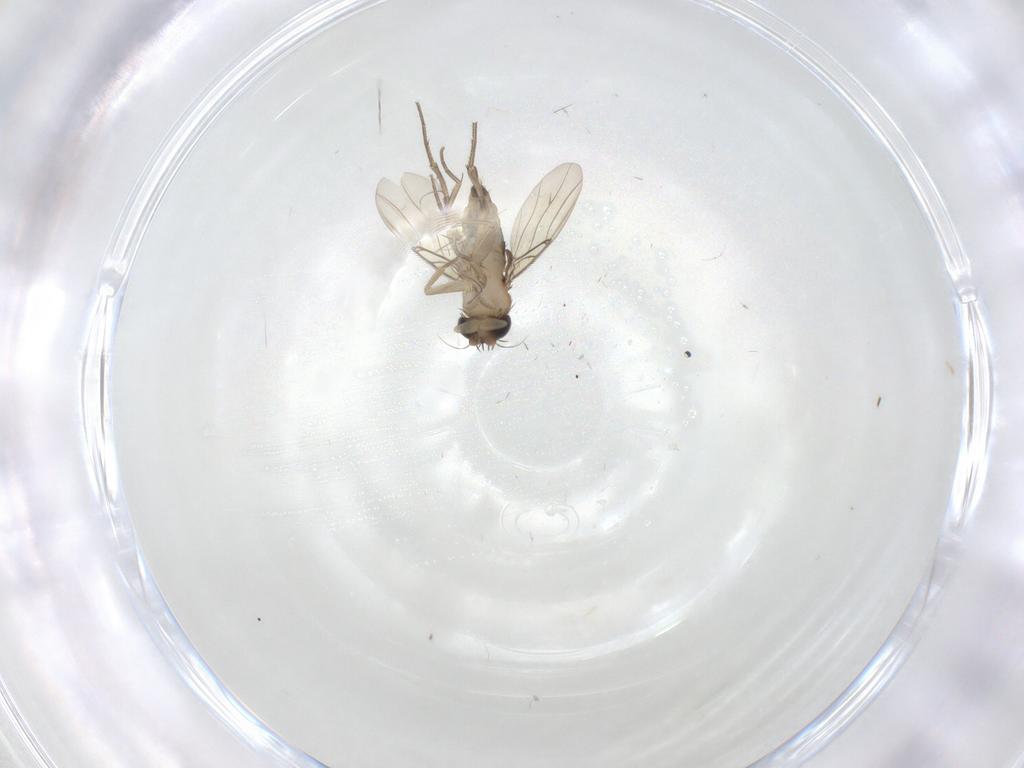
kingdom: Animalia
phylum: Arthropoda
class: Insecta
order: Diptera
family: Phoridae
